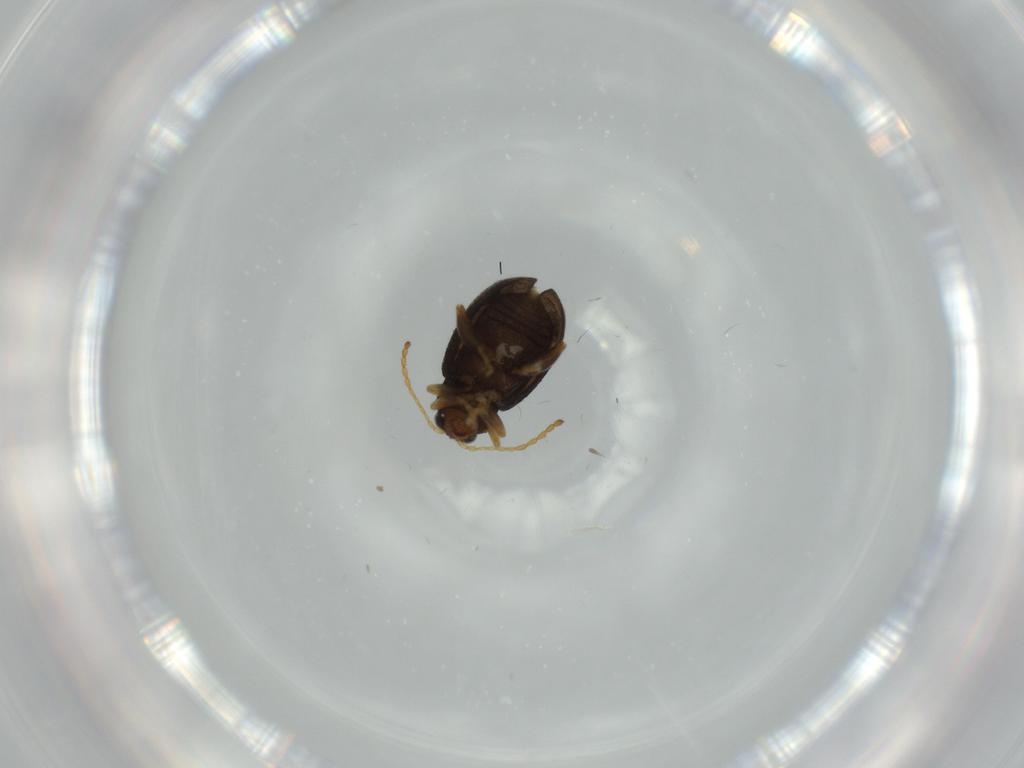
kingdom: Animalia
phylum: Arthropoda
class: Insecta
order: Coleoptera
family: Chrysomelidae
